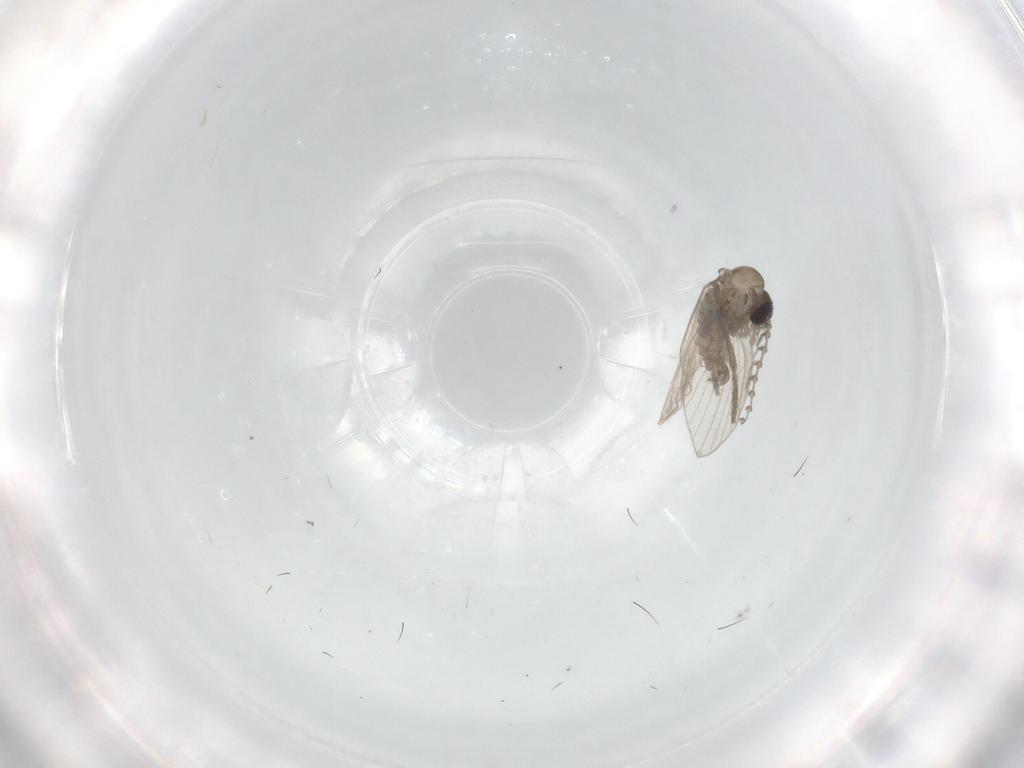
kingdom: Animalia
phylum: Arthropoda
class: Insecta
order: Diptera
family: Psychodidae
